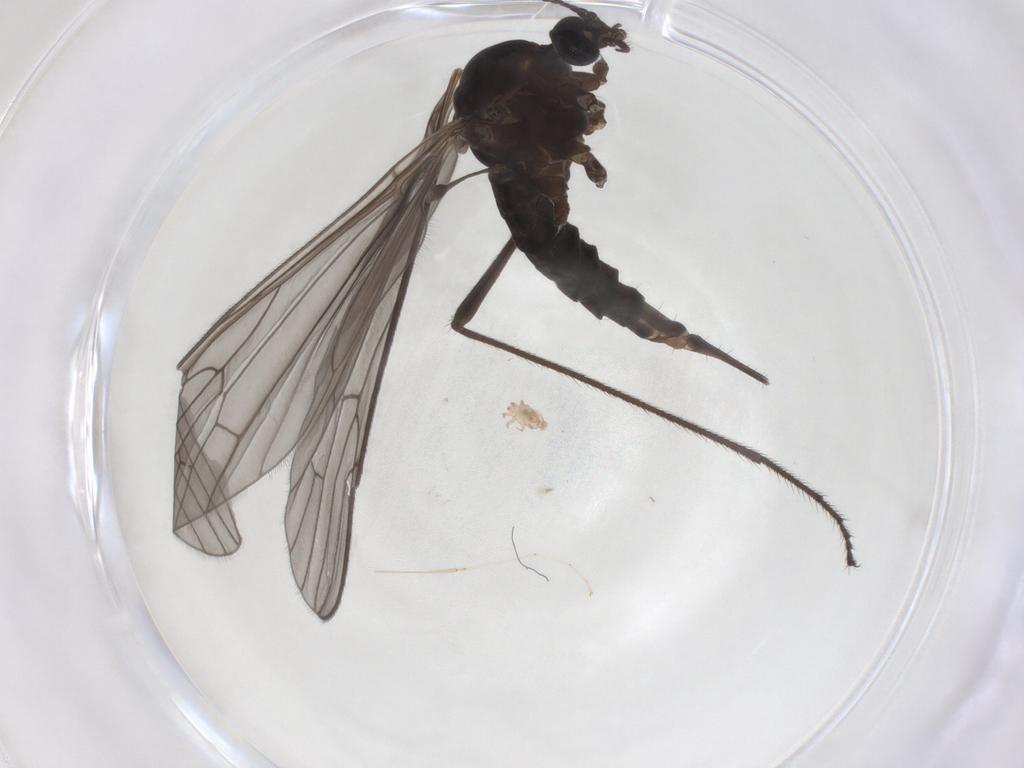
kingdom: Animalia
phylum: Arthropoda
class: Insecta
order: Diptera
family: Limoniidae
